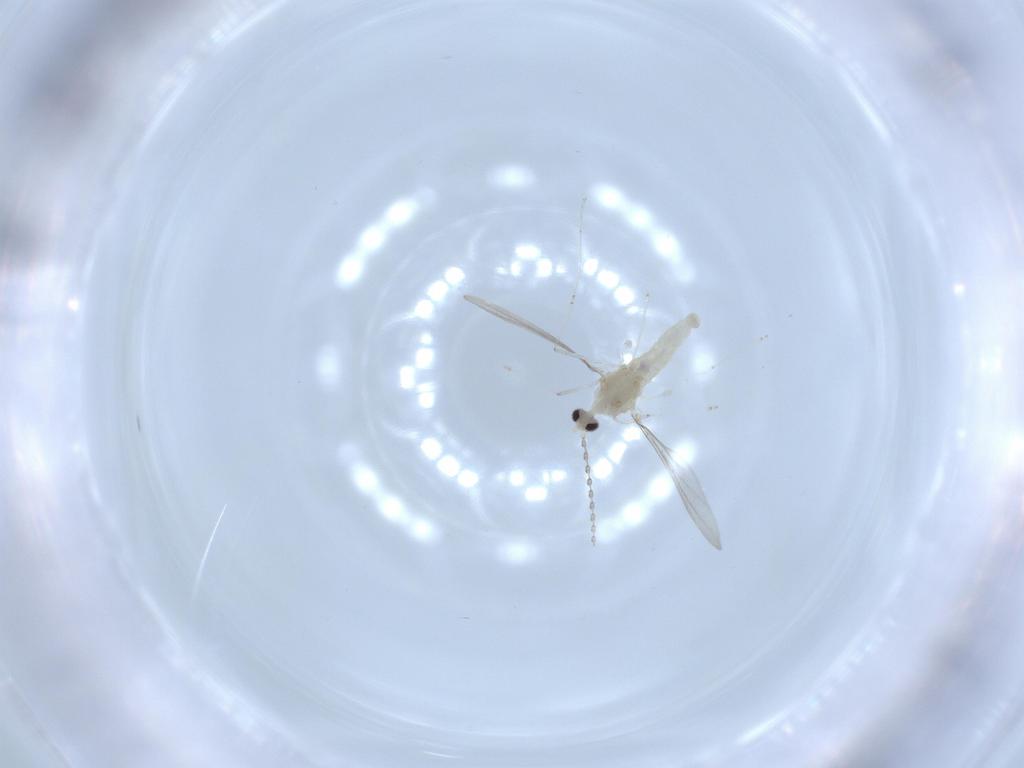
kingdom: Animalia
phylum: Arthropoda
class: Insecta
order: Diptera
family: Cecidomyiidae
